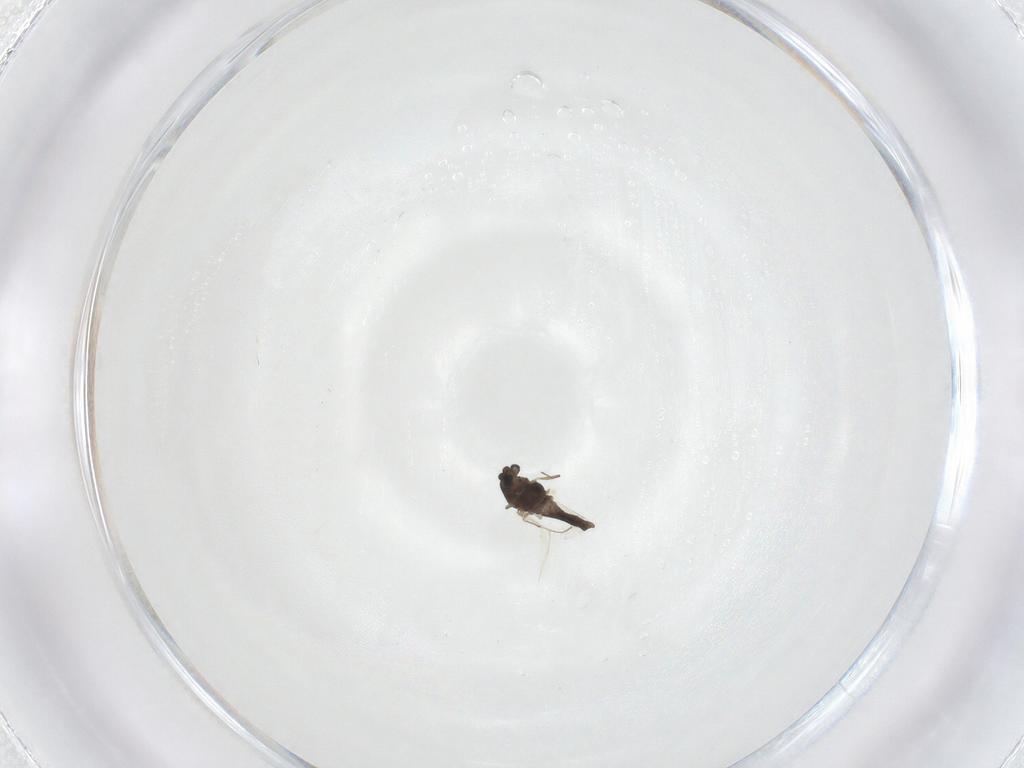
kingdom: Animalia
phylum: Arthropoda
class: Insecta
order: Diptera
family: Chironomidae
